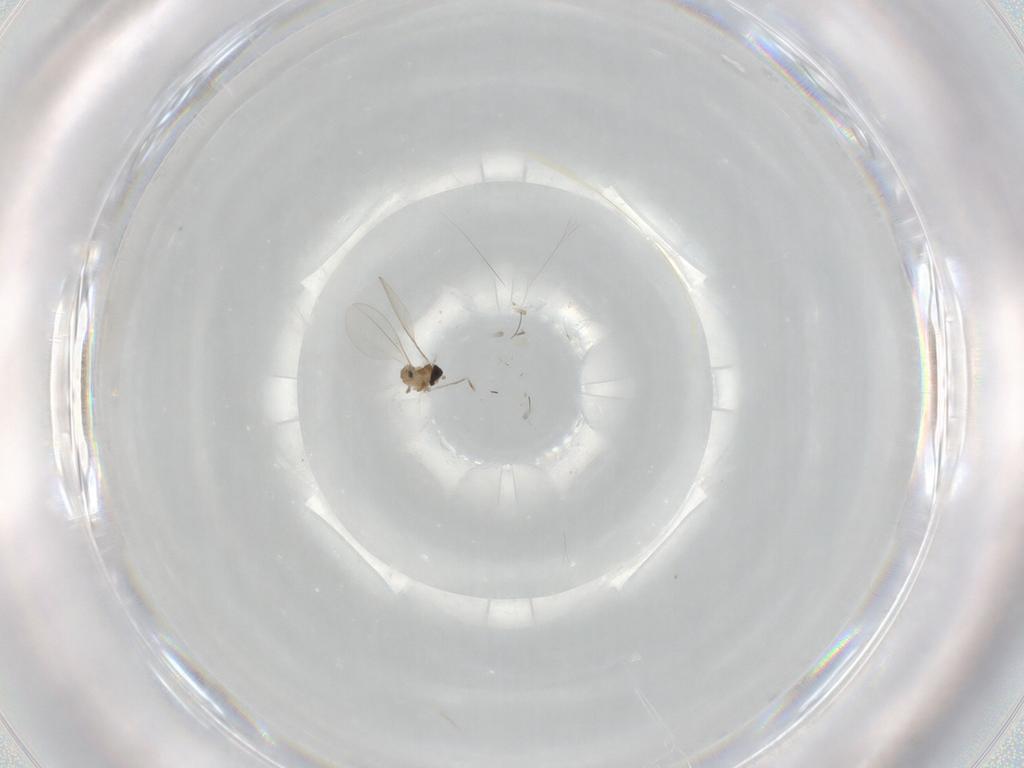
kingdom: Animalia
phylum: Arthropoda
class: Insecta
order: Diptera
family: Cecidomyiidae
